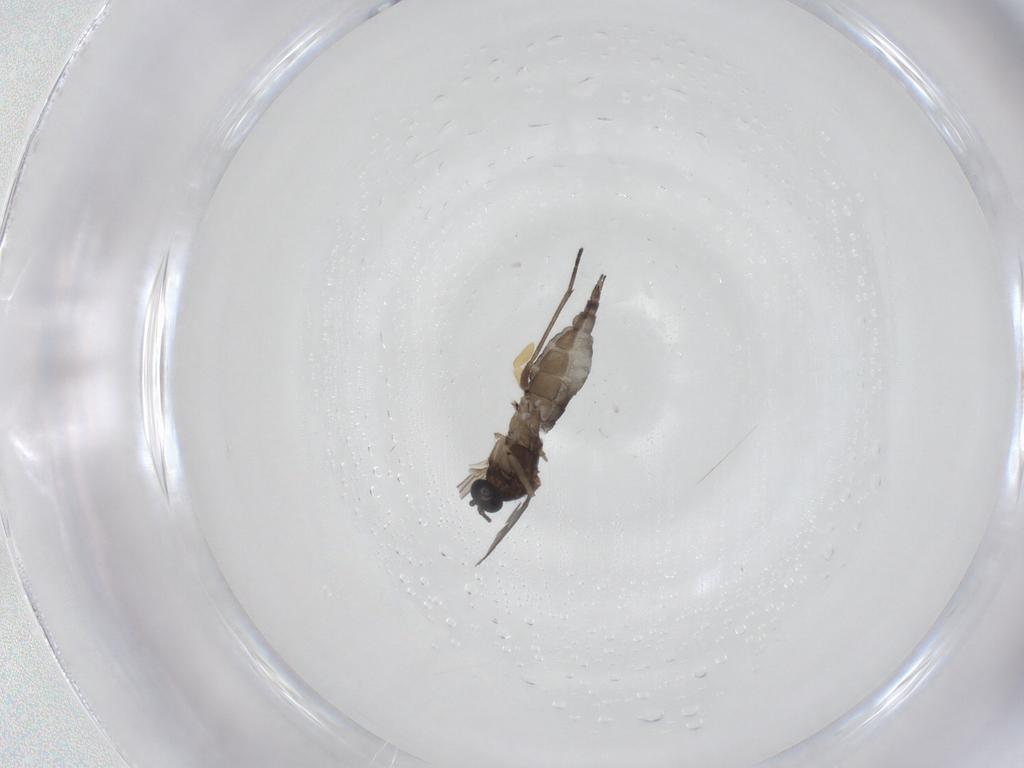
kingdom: Animalia
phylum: Arthropoda
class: Insecta
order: Diptera
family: Sciaridae
